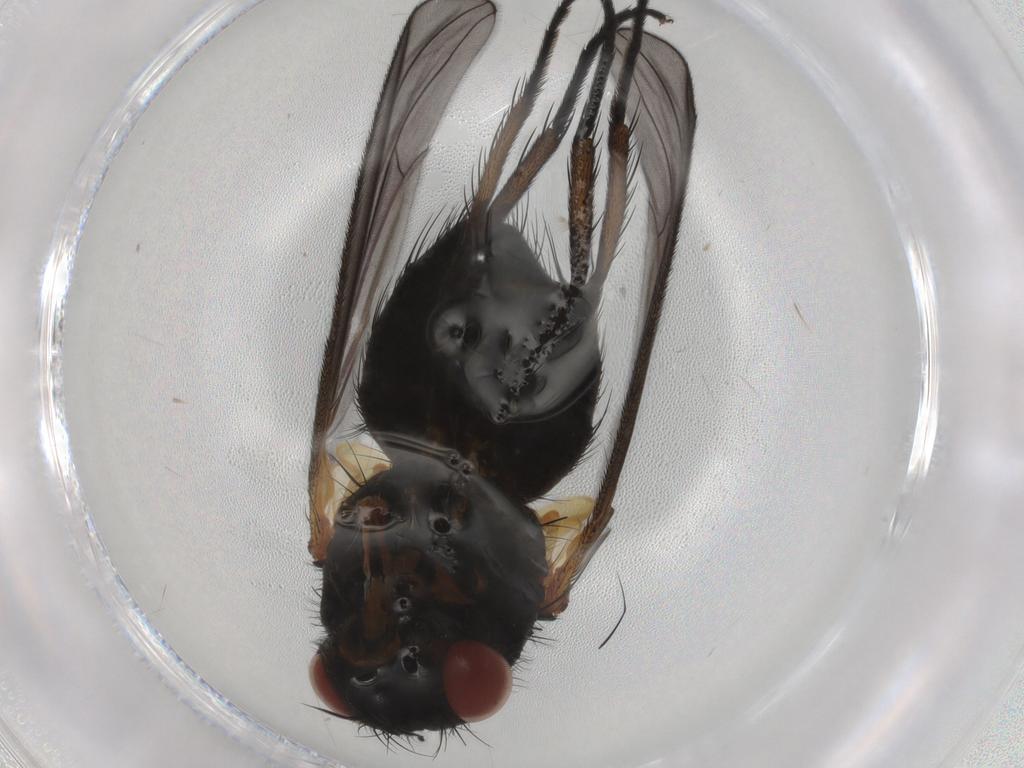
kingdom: Animalia
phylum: Arthropoda
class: Insecta
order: Diptera
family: Tachinidae
